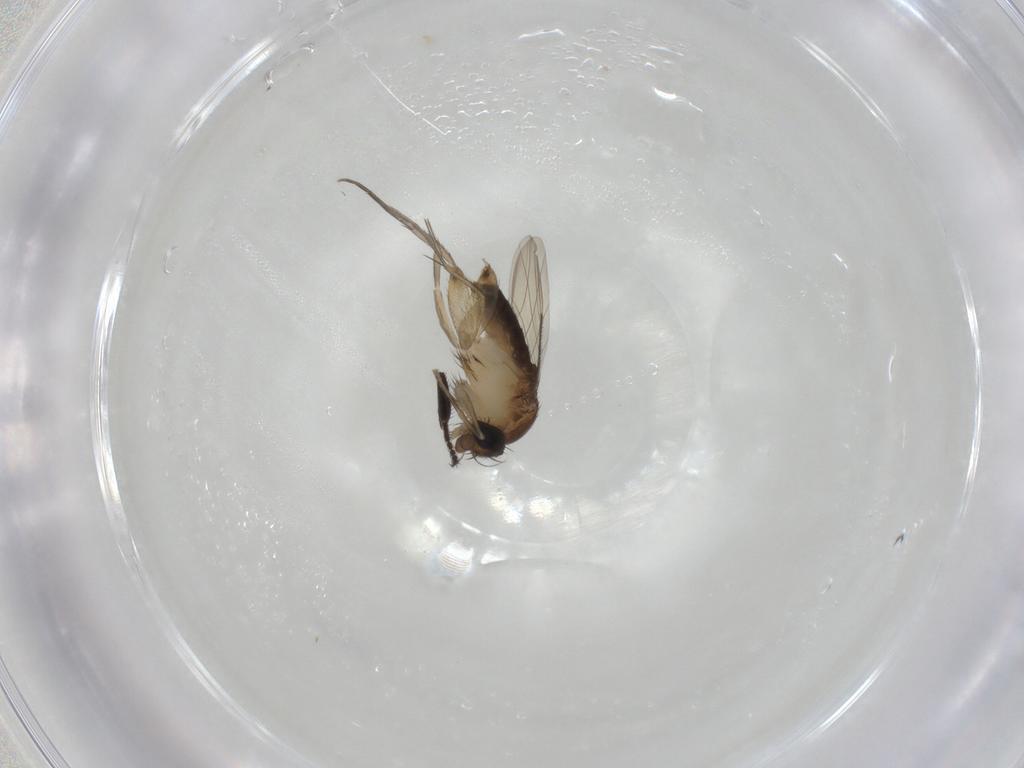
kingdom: Animalia
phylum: Arthropoda
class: Insecta
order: Diptera
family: Phoridae
